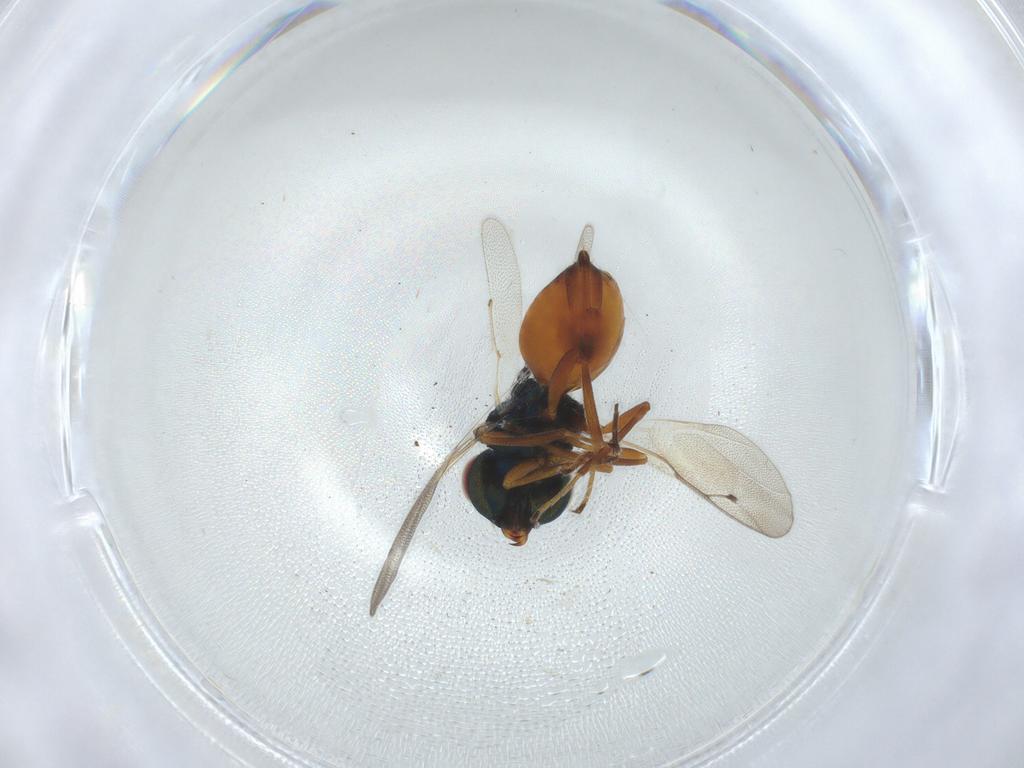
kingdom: Animalia
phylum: Arthropoda
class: Insecta
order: Hymenoptera
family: Pteromalidae
